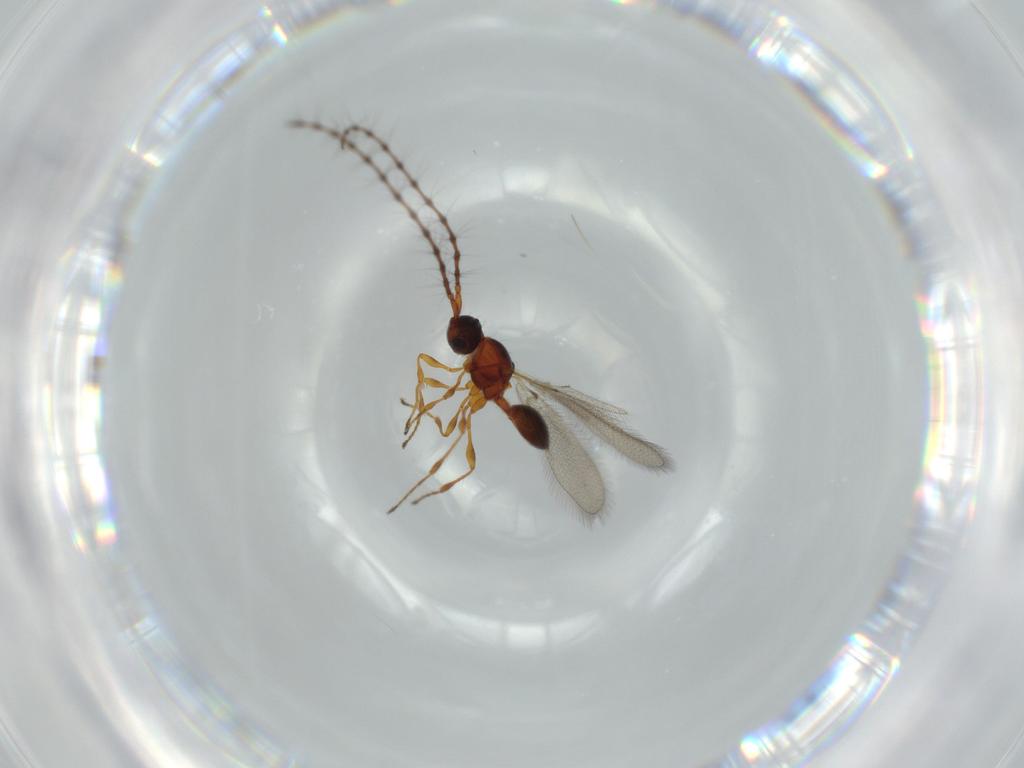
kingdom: Animalia
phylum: Arthropoda
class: Insecta
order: Hymenoptera
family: Diapriidae
